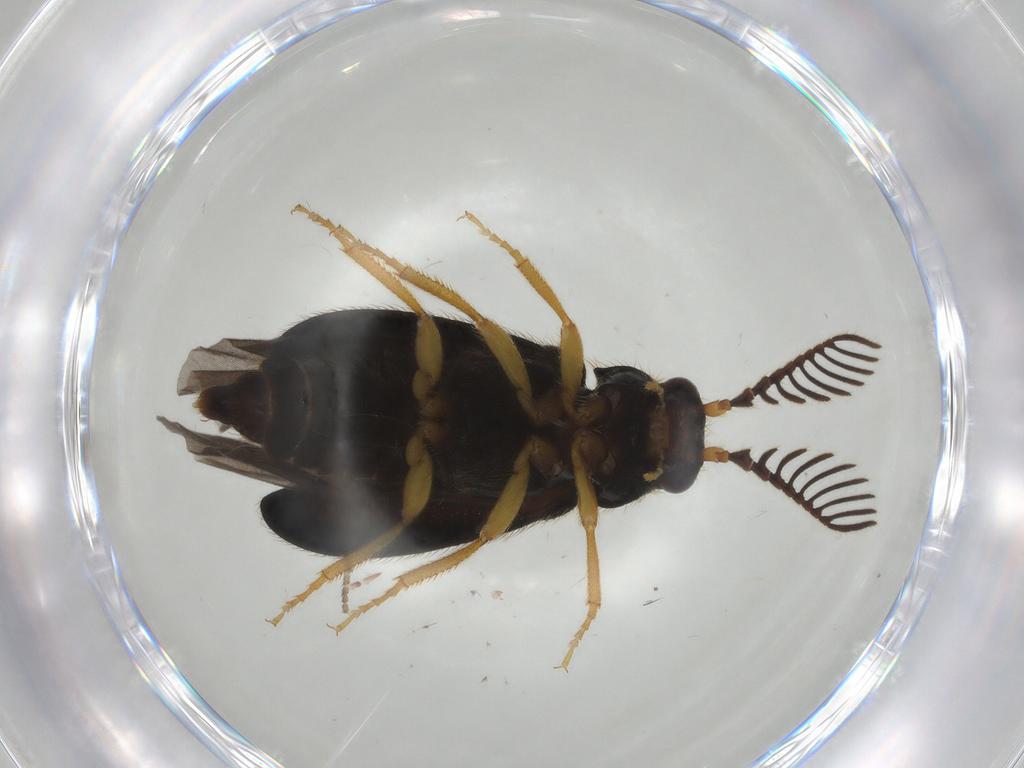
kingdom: Animalia
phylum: Arthropoda
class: Insecta
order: Coleoptera
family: Elateridae
